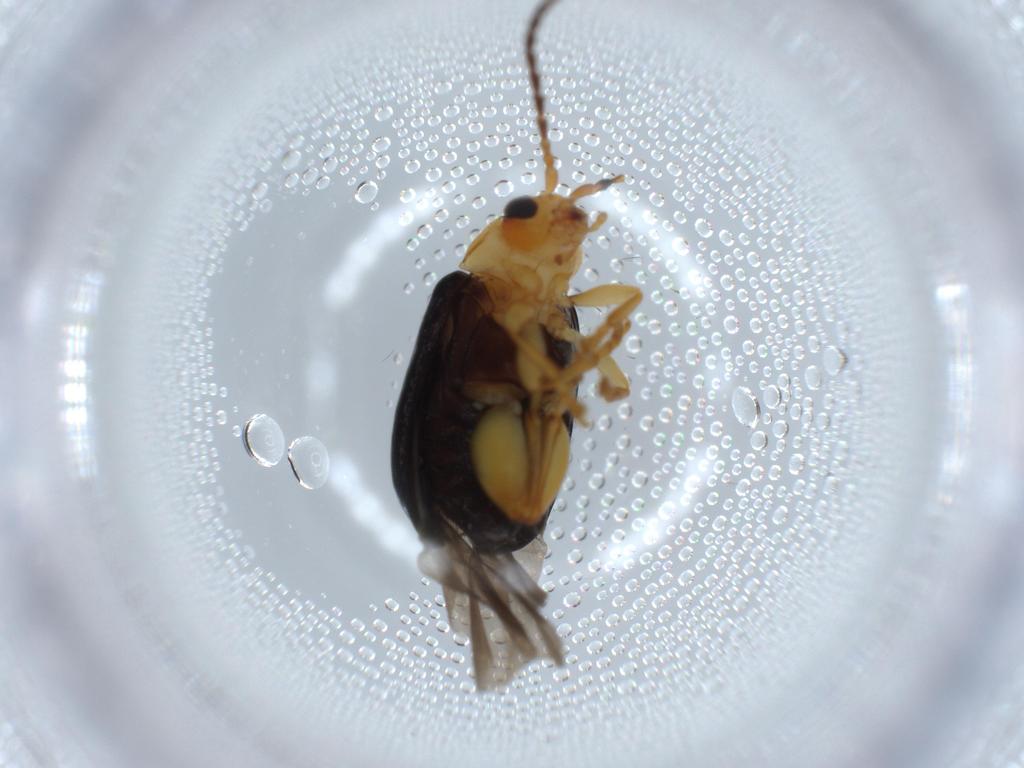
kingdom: Animalia
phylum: Arthropoda
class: Insecta
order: Coleoptera
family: Chrysomelidae
